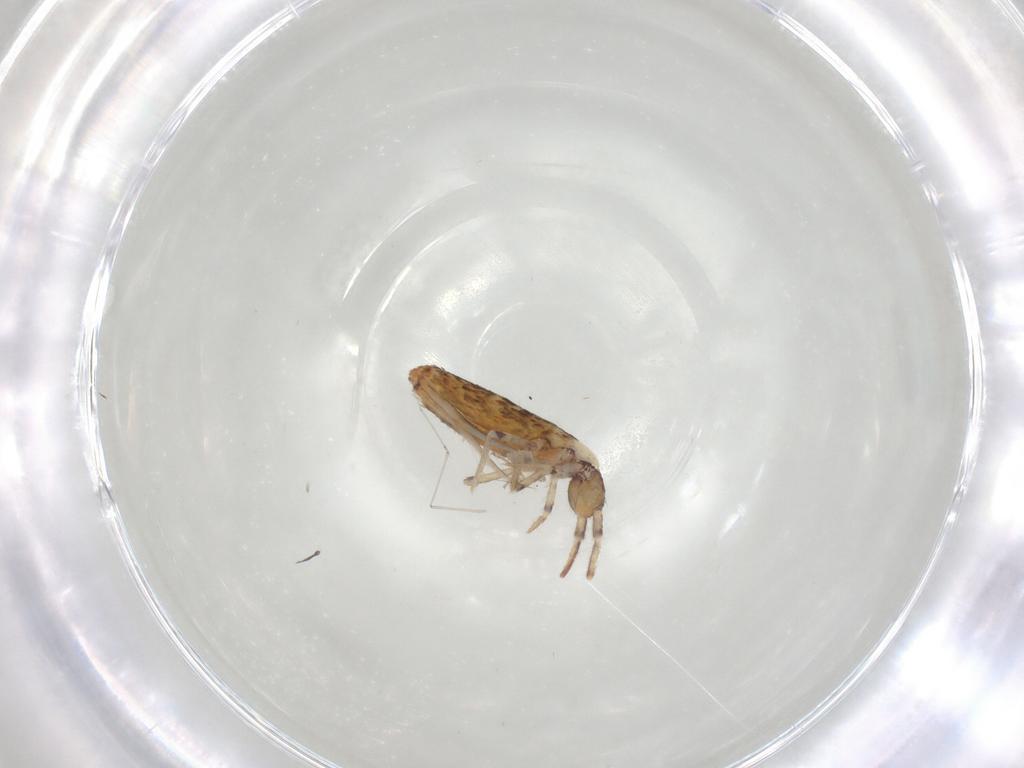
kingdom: Animalia
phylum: Arthropoda
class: Collembola
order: Entomobryomorpha
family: Entomobryidae
